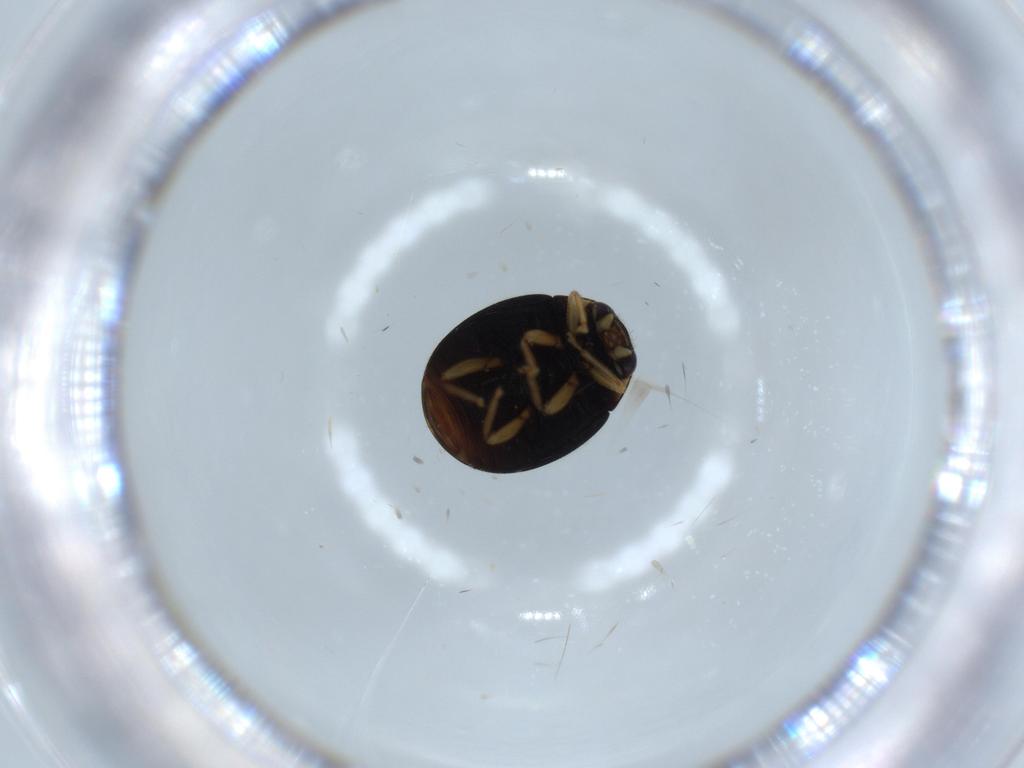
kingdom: Animalia
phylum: Arthropoda
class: Insecta
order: Coleoptera
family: Coccinellidae
